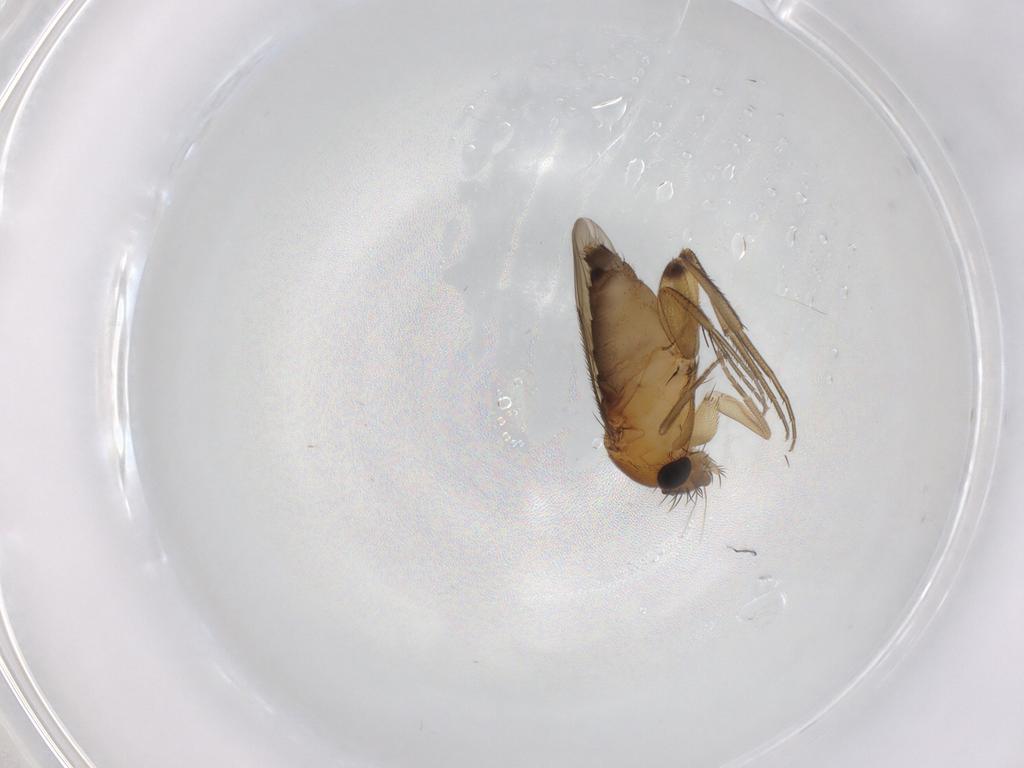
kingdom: Animalia
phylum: Arthropoda
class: Insecta
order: Diptera
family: Phoridae
